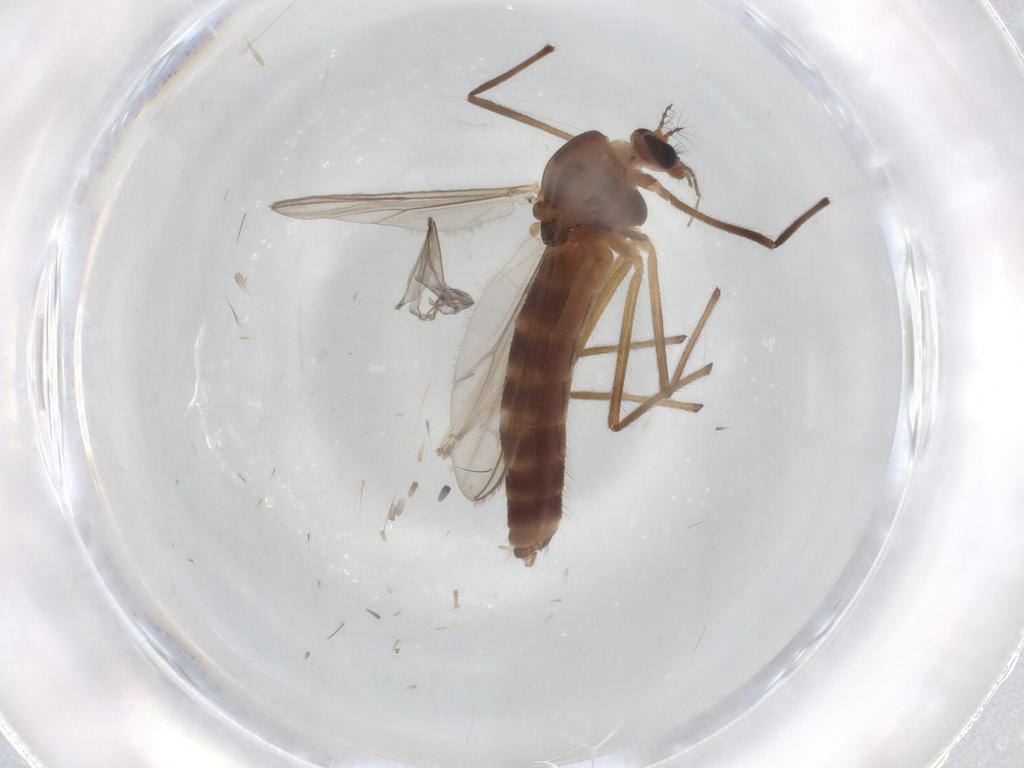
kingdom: Animalia
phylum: Arthropoda
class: Insecta
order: Diptera
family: Chironomidae
